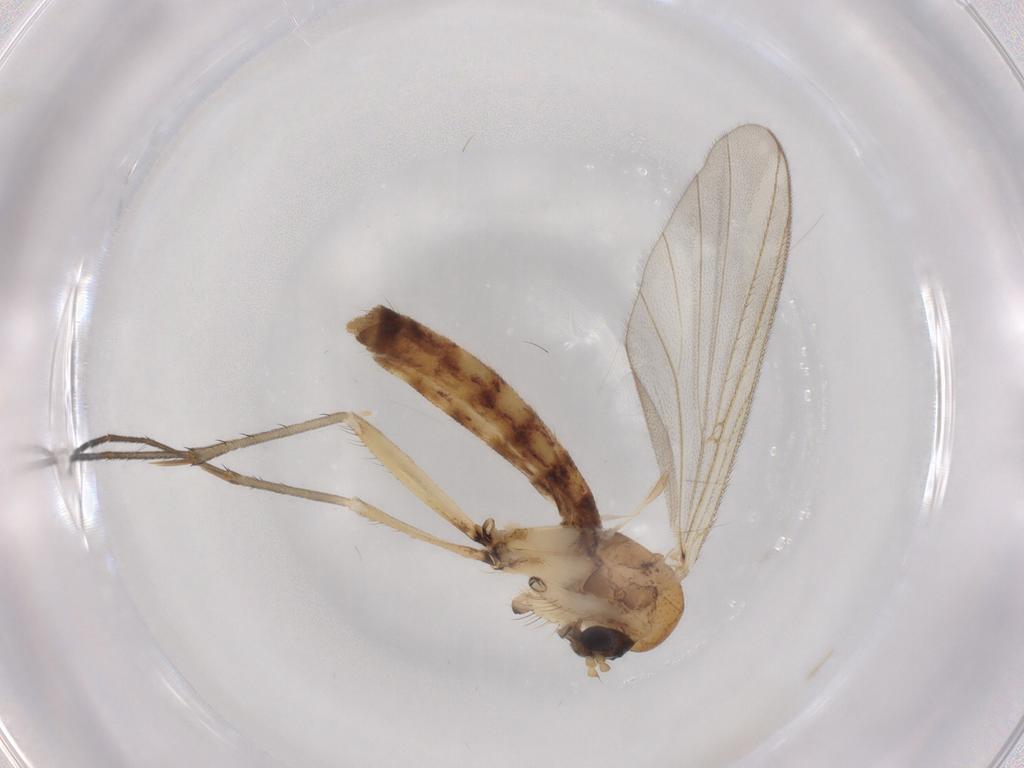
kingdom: Animalia
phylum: Arthropoda
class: Insecta
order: Diptera
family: Mycetophilidae
